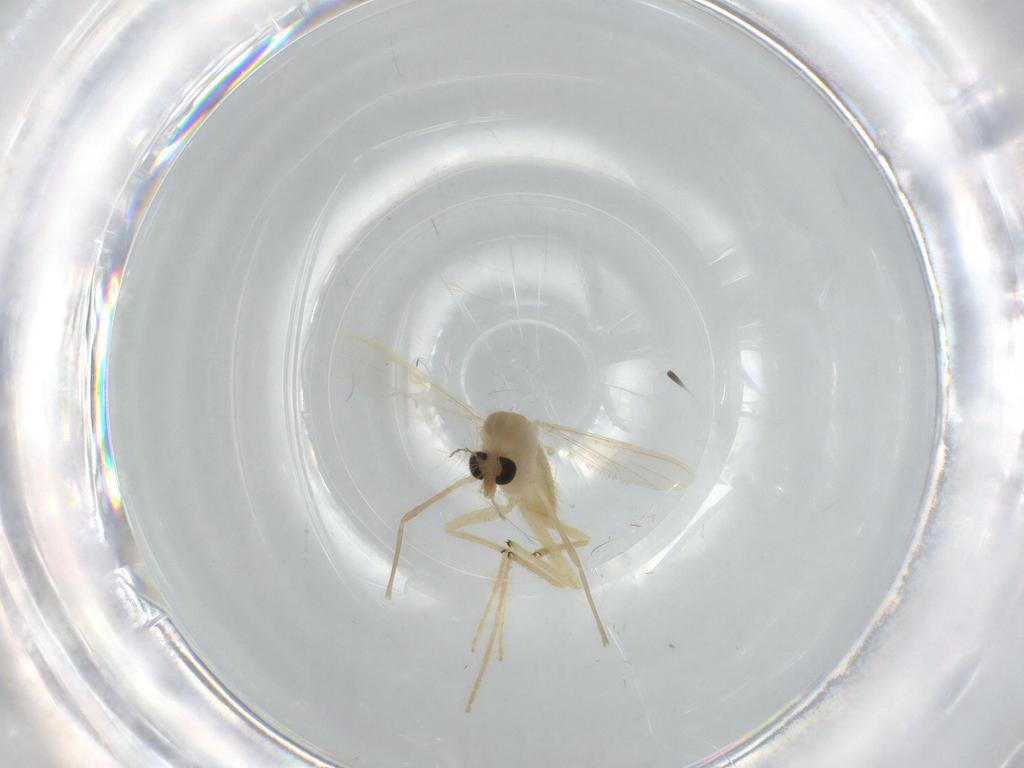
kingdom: Animalia
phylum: Arthropoda
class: Insecta
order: Diptera
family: Chironomidae
